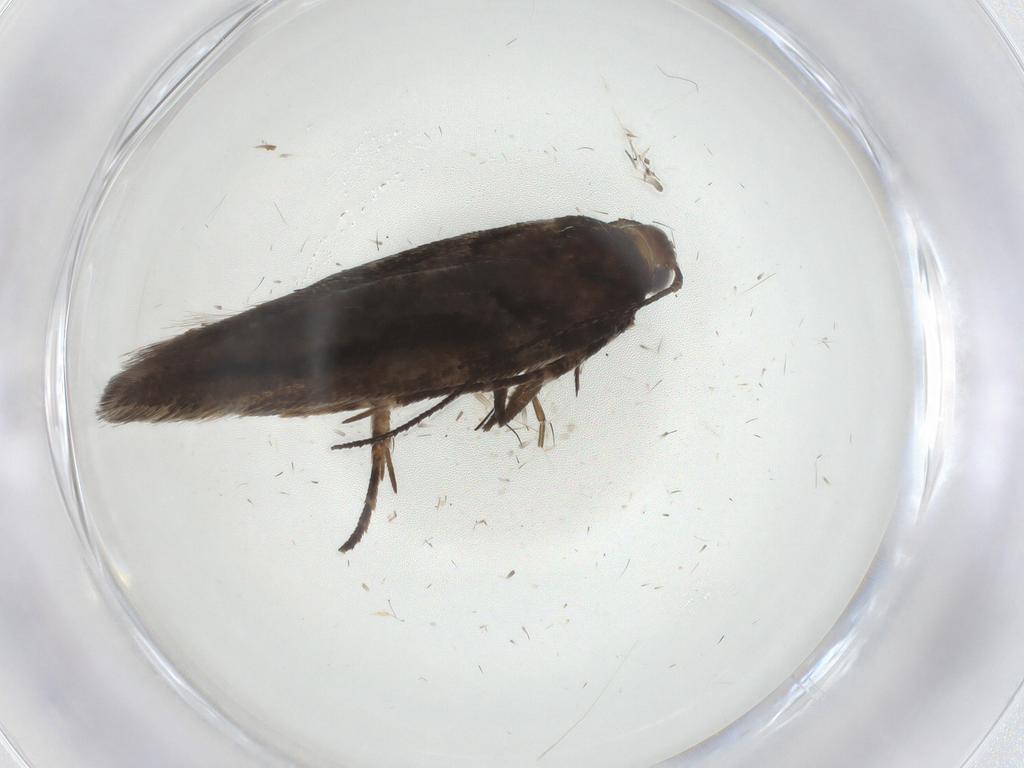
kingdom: Animalia
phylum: Arthropoda
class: Insecta
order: Lepidoptera
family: Gelechiidae
